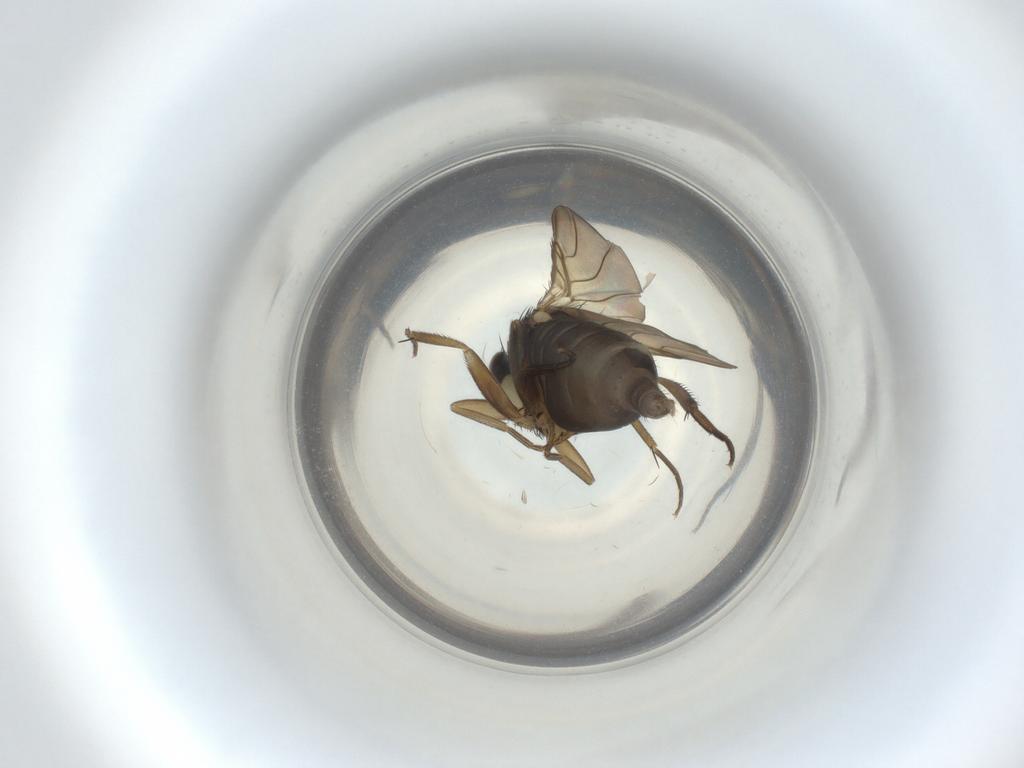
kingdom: Animalia
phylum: Arthropoda
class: Insecta
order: Diptera
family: Phoridae
